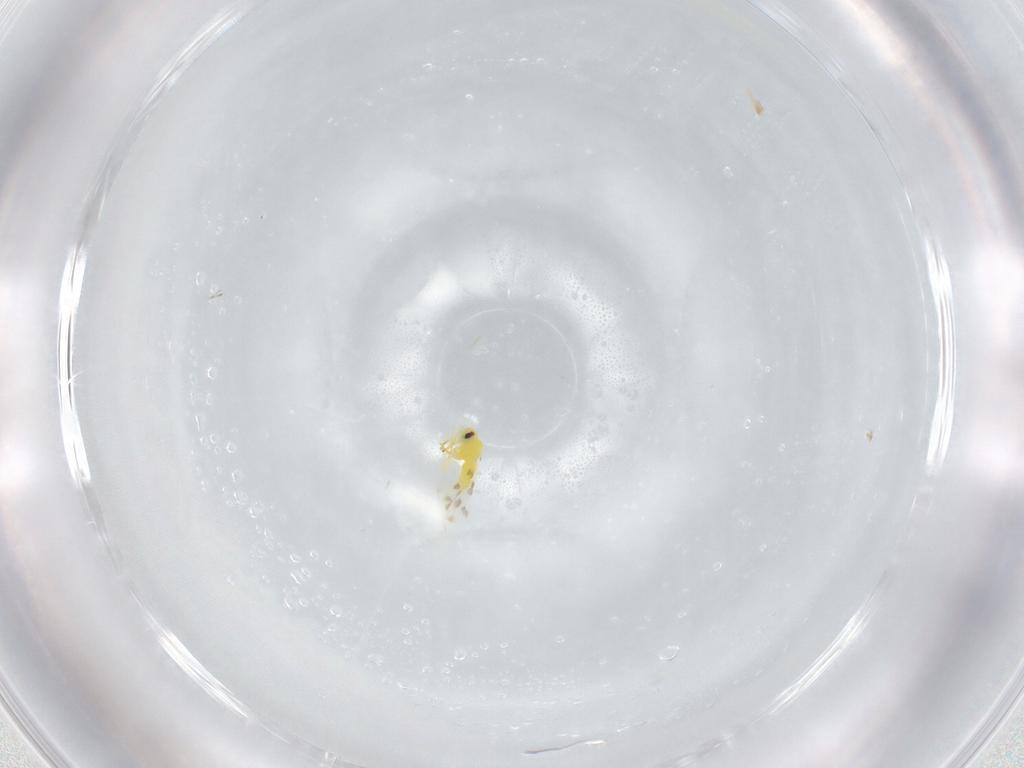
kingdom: Animalia
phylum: Arthropoda
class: Insecta
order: Hemiptera
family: Aleyrodidae
